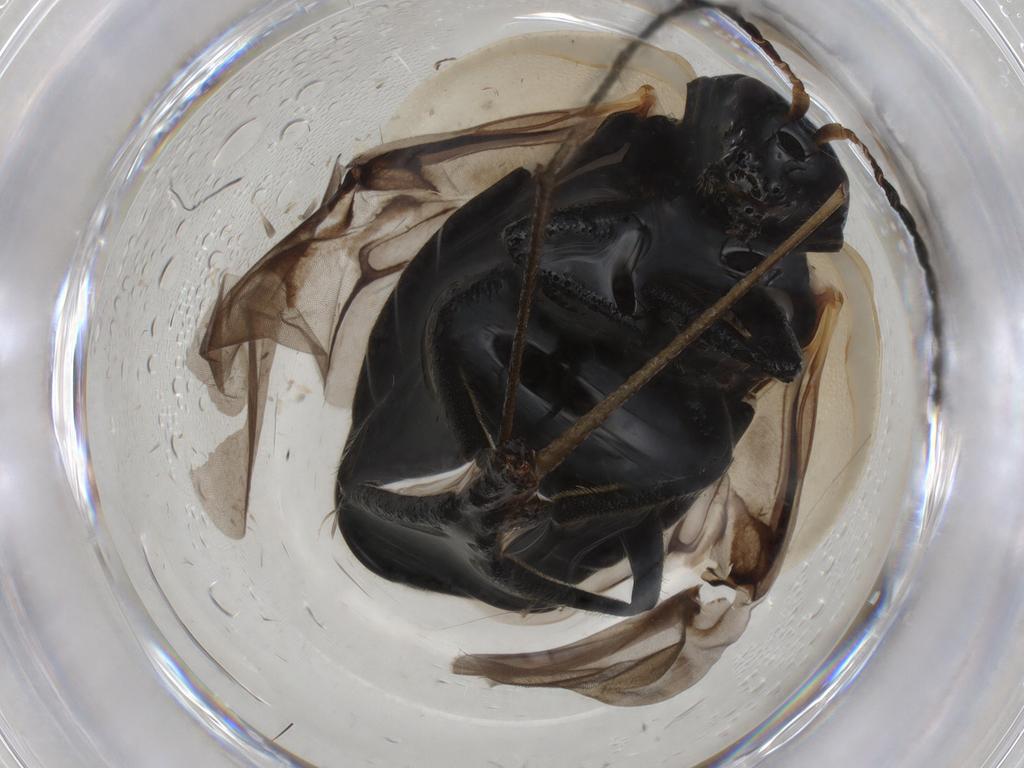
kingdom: Animalia
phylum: Arthropoda
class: Insecta
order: Coleoptera
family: Chrysomelidae
